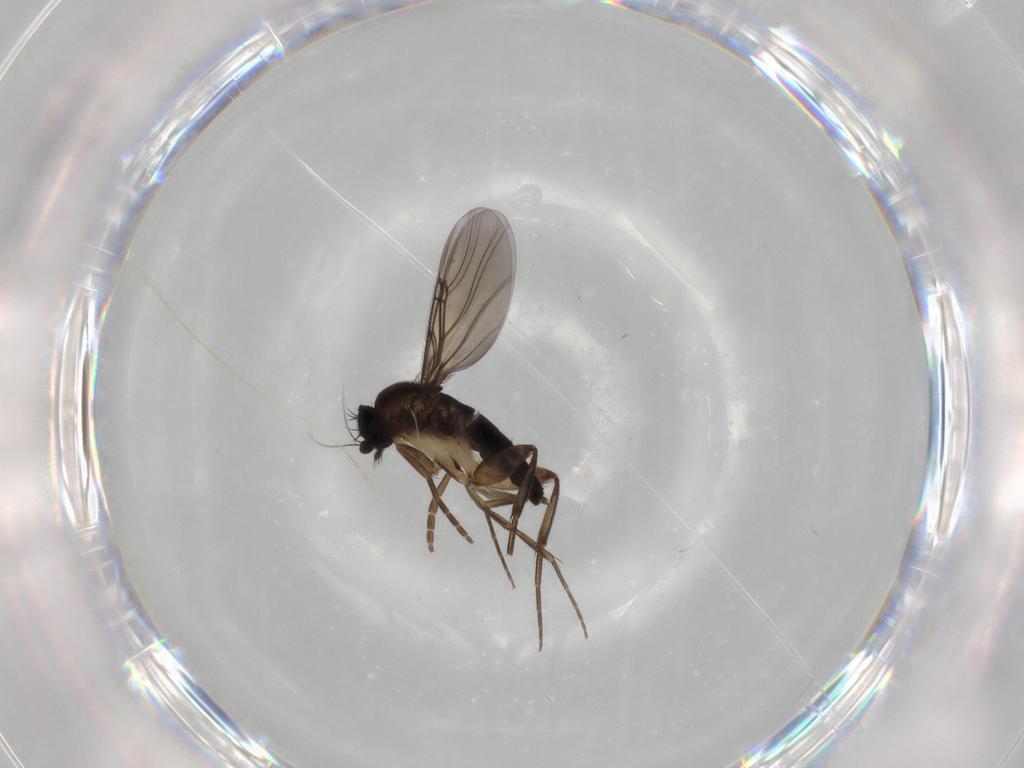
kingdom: Animalia
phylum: Arthropoda
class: Insecta
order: Diptera
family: Phoridae
